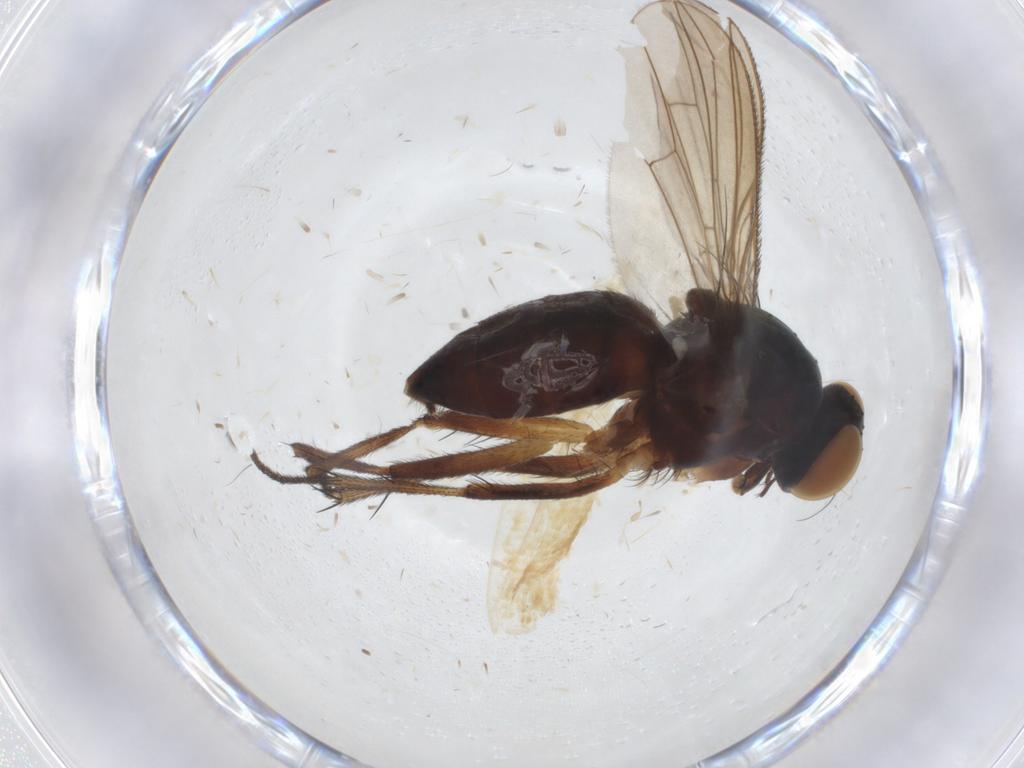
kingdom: Animalia
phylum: Arthropoda
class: Insecta
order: Diptera
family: Muscidae
